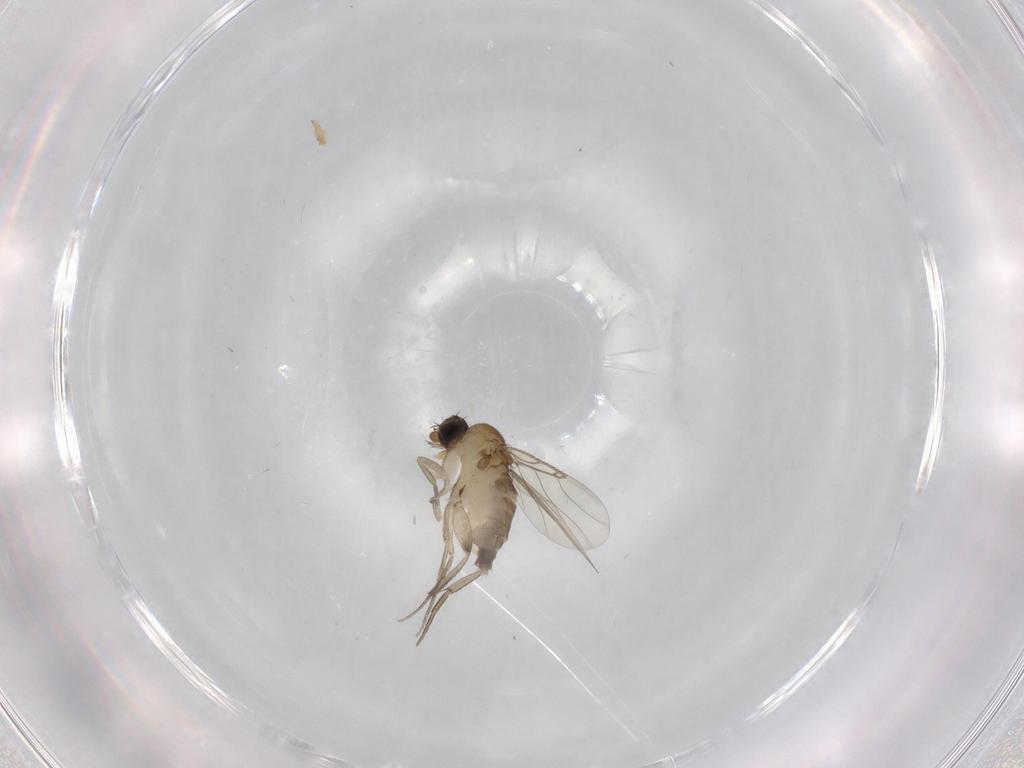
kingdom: Animalia
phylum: Arthropoda
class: Insecta
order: Diptera
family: Phoridae
